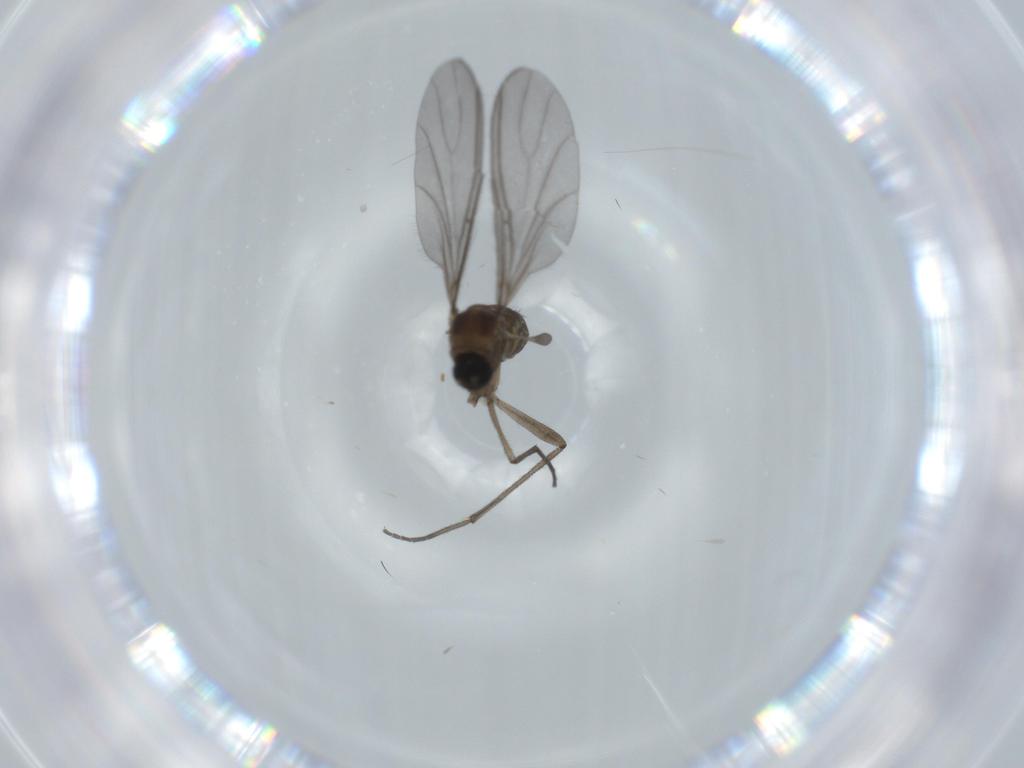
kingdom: Animalia
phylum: Arthropoda
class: Insecta
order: Diptera
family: Sciaridae
